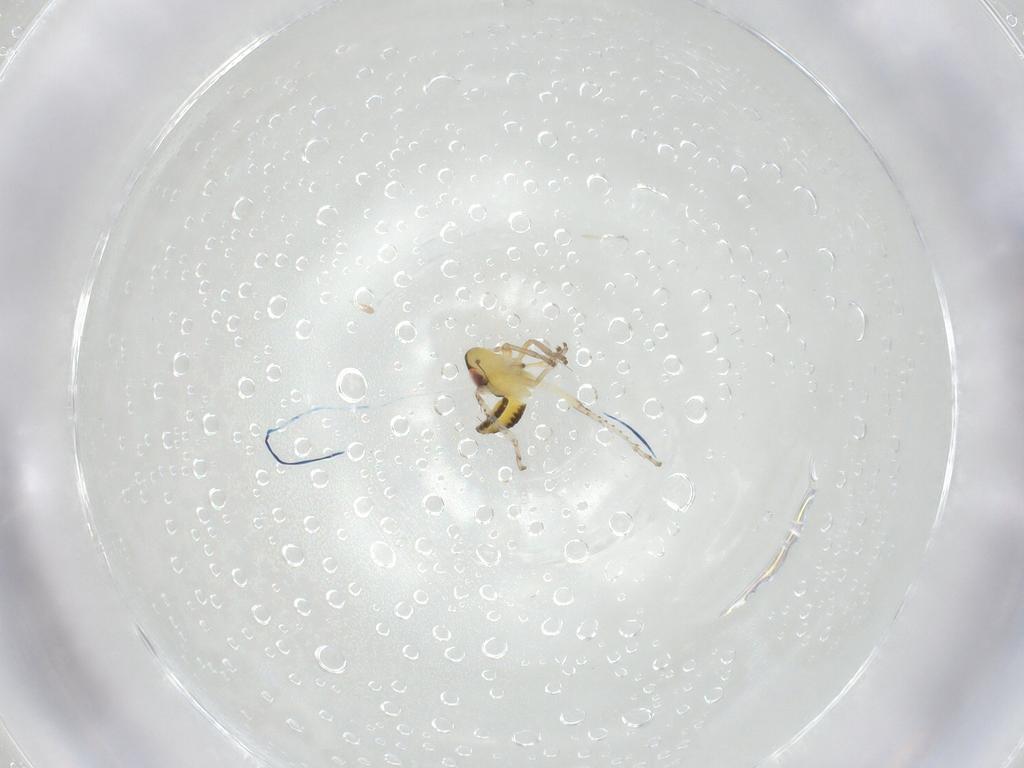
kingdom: Animalia
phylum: Arthropoda
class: Insecta
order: Hemiptera
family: Cicadellidae
